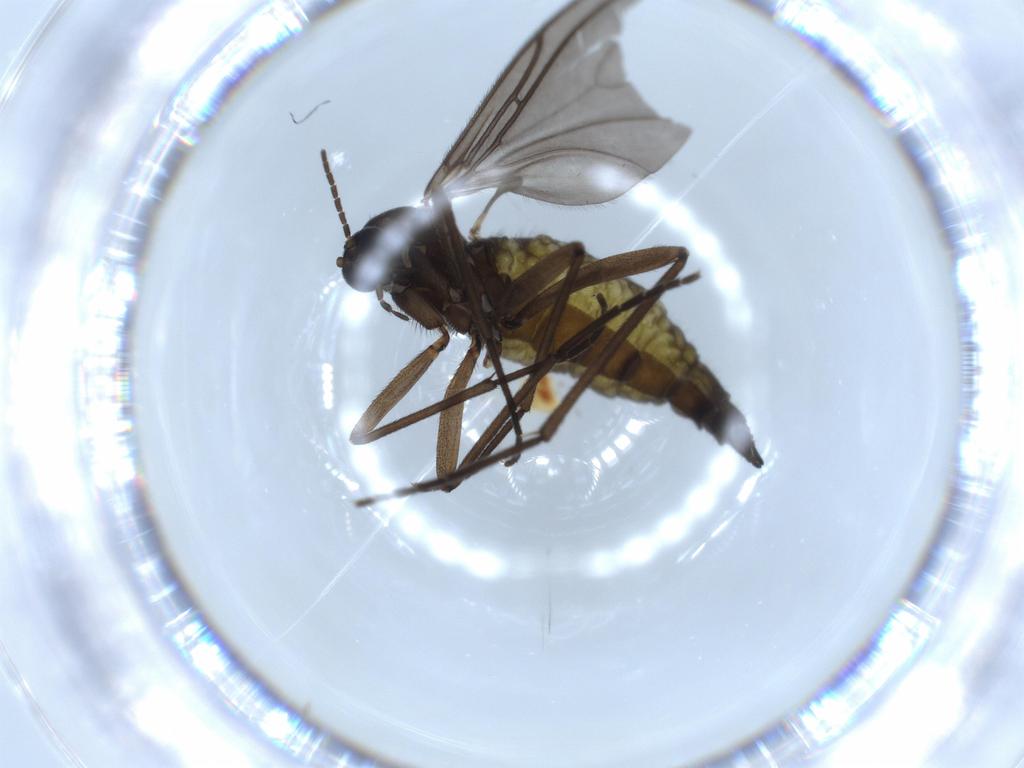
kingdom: Animalia
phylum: Arthropoda
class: Insecta
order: Diptera
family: Sciaridae
